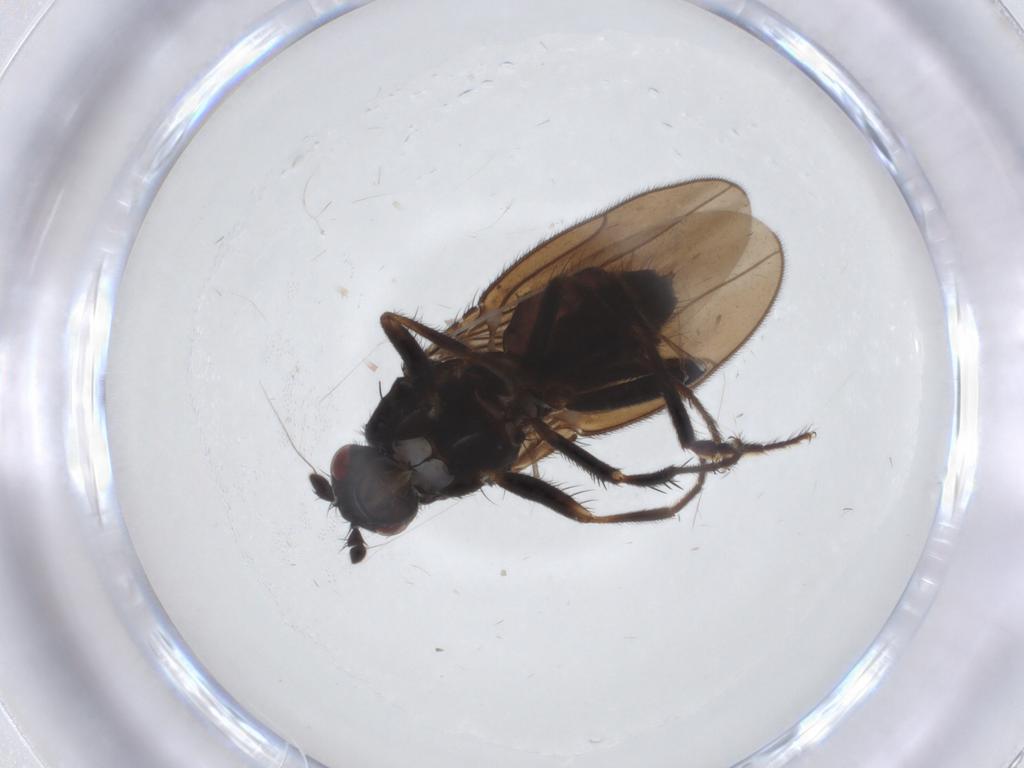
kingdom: Animalia
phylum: Arthropoda
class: Insecta
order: Diptera
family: Sphaeroceridae
